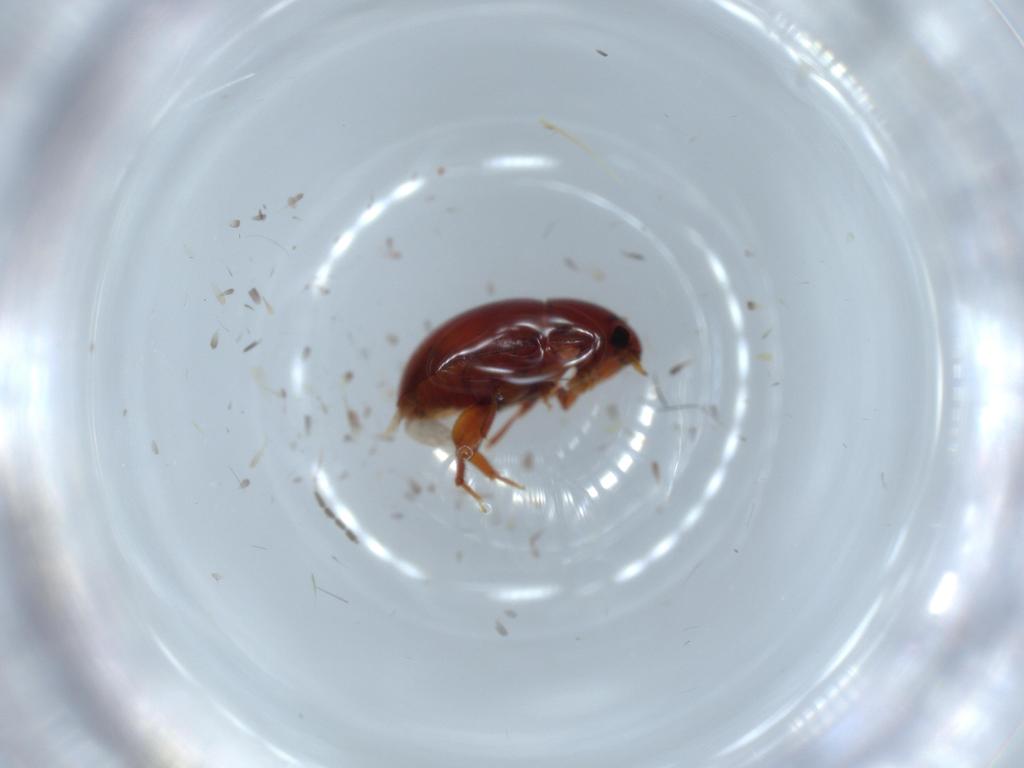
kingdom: Animalia
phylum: Arthropoda
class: Insecta
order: Coleoptera
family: Phalacridae
